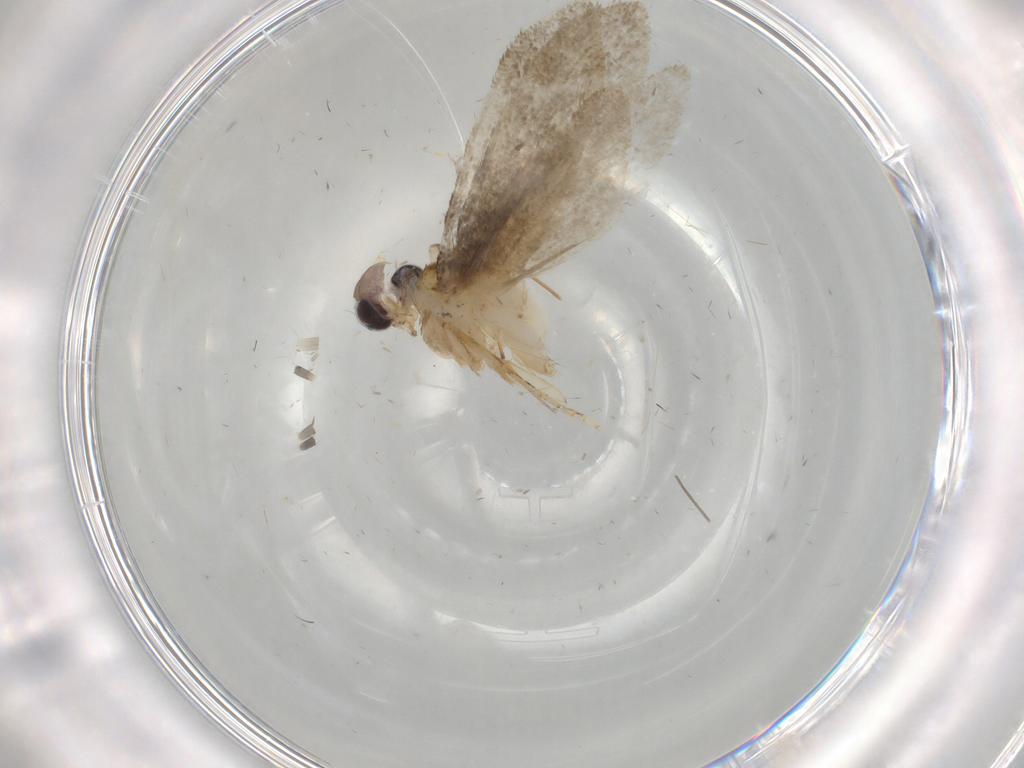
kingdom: Animalia
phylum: Arthropoda
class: Insecta
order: Lepidoptera
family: Tineidae
